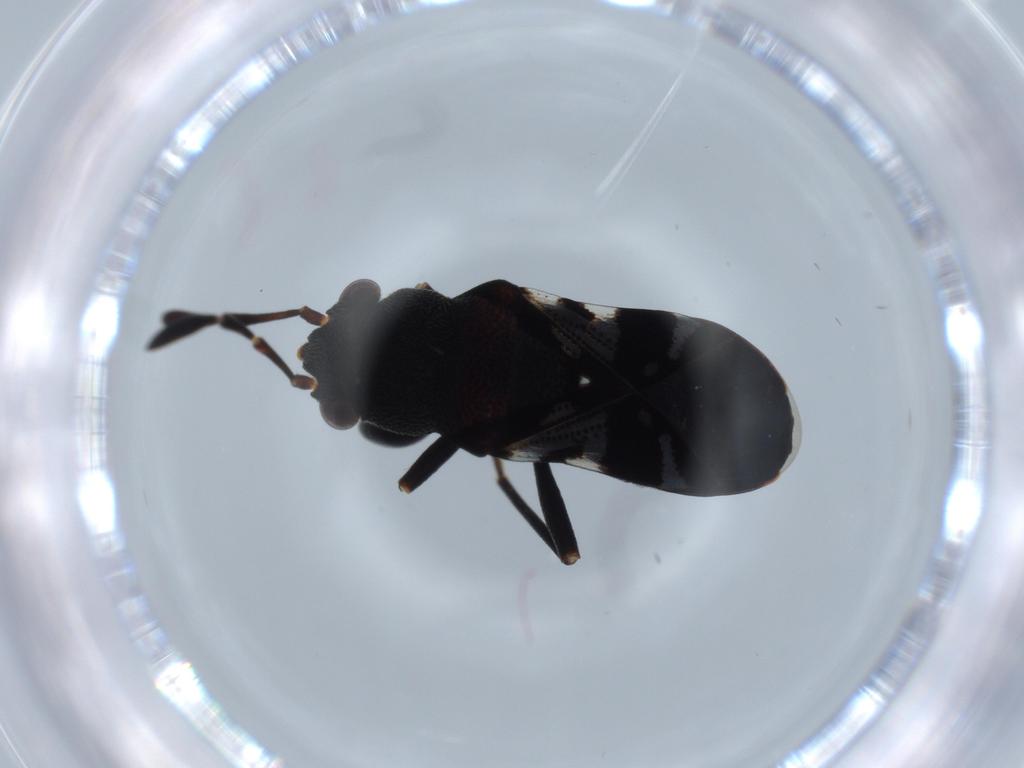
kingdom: Animalia
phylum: Arthropoda
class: Insecta
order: Hemiptera
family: Rhyparochromidae
